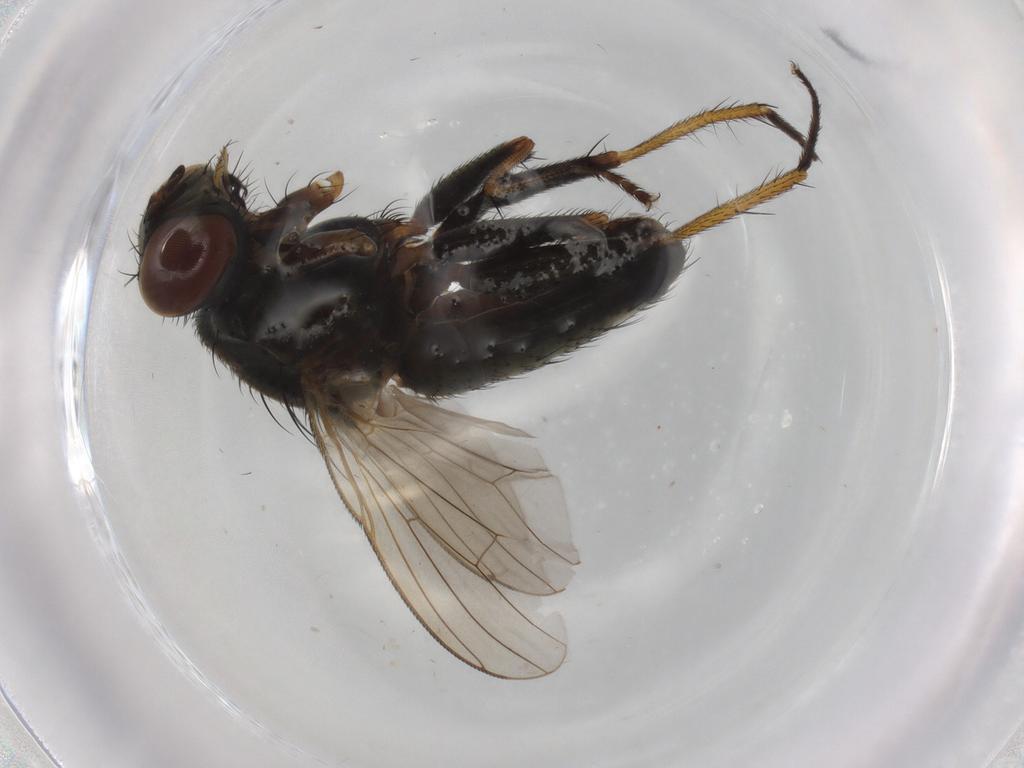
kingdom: Animalia
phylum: Arthropoda
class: Insecta
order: Diptera
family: Muscidae
